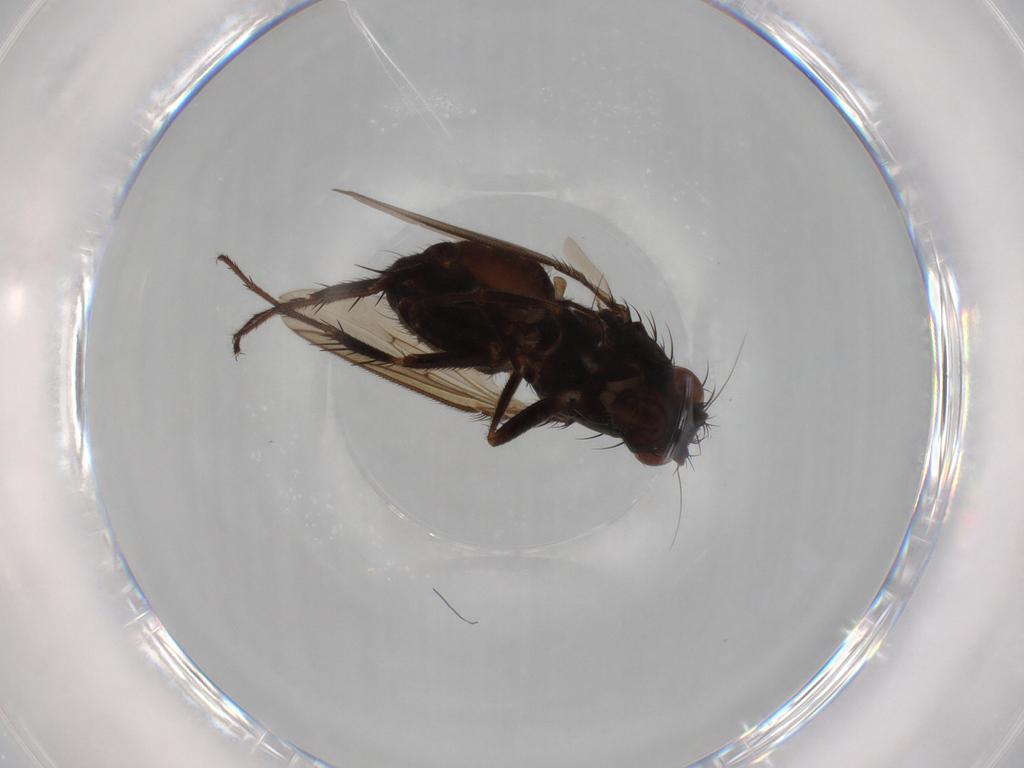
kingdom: Animalia
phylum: Arthropoda
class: Insecta
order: Diptera
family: Sphaeroceridae
